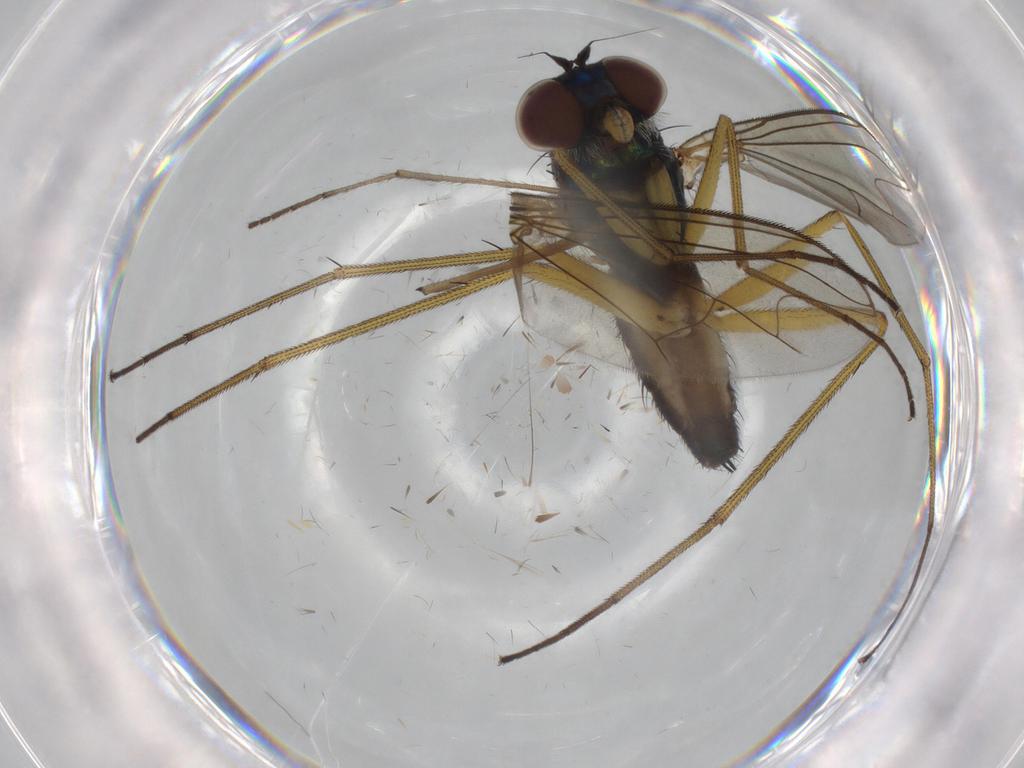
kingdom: Animalia
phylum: Arthropoda
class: Insecta
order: Diptera
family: Dolichopodidae
